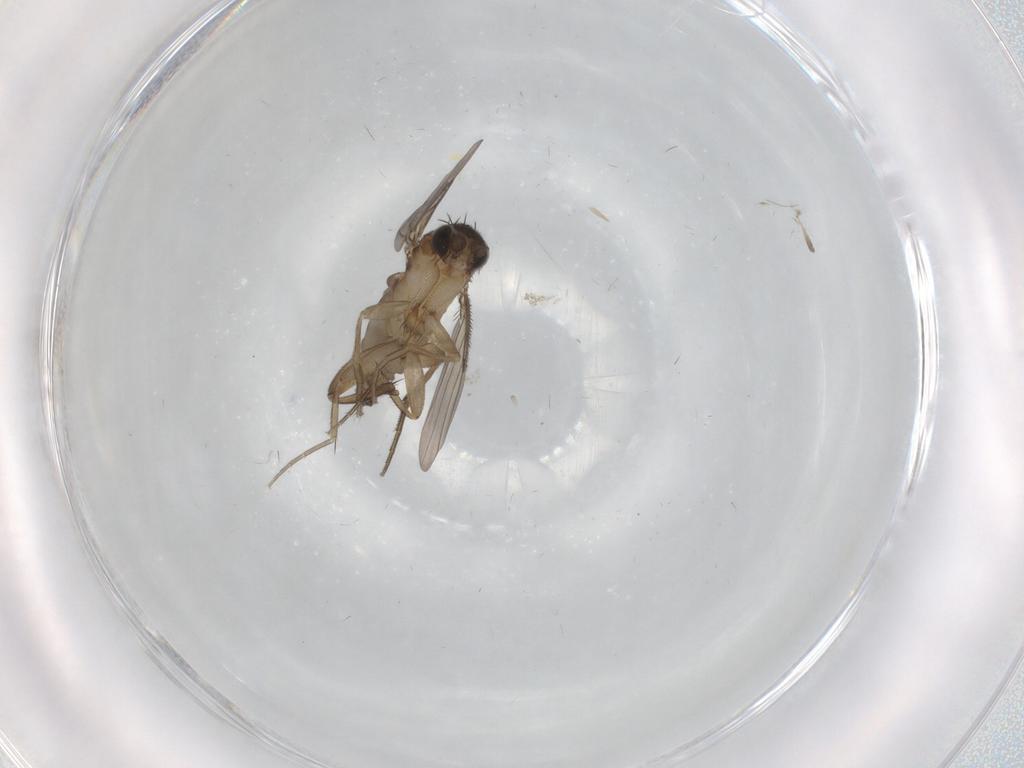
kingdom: Animalia
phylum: Arthropoda
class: Insecta
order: Diptera
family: Phoridae
